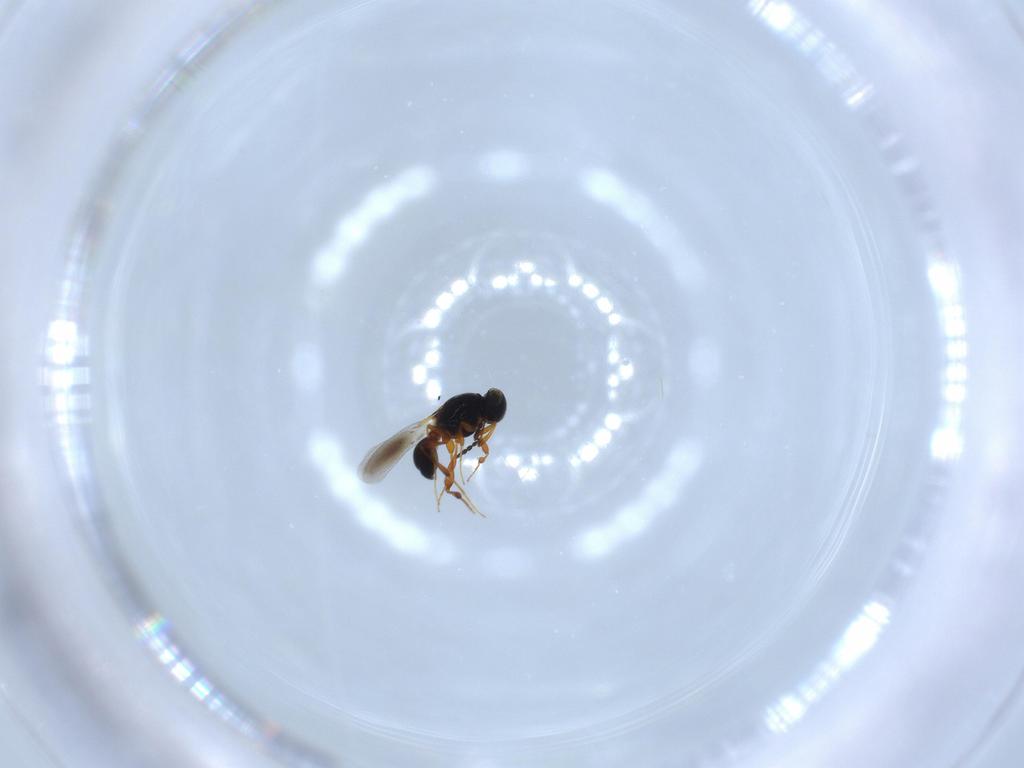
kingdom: Animalia
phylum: Arthropoda
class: Insecta
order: Hymenoptera
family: Platygastridae
